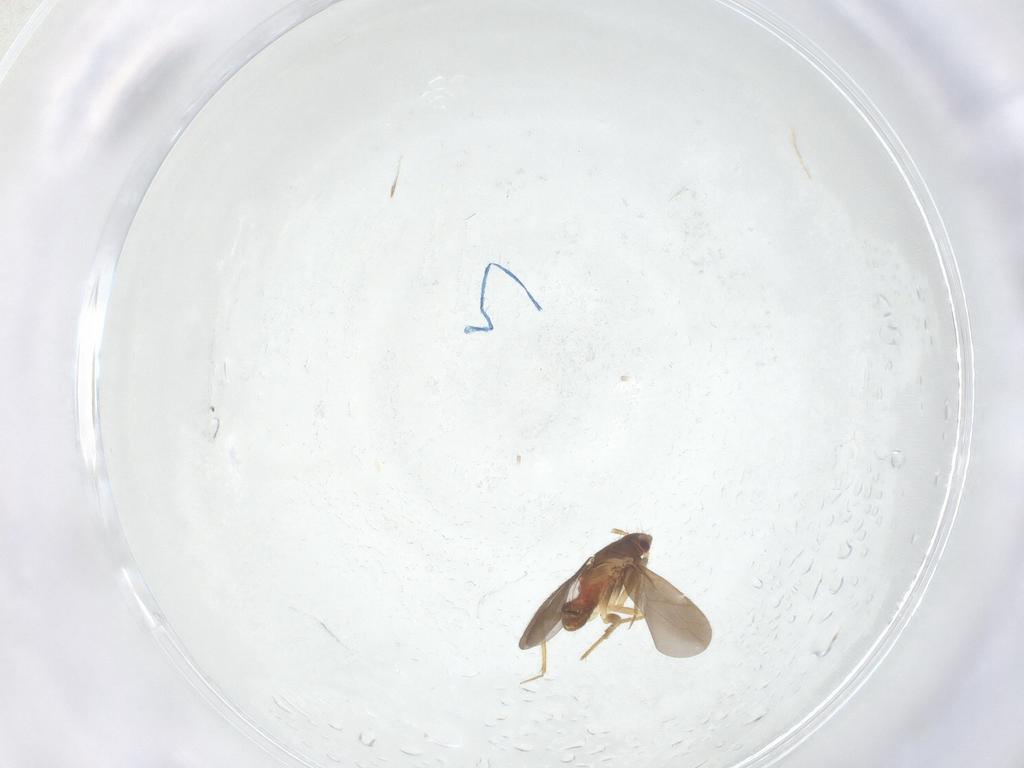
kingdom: Animalia
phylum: Arthropoda
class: Insecta
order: Hemiptera
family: Ceratocombidae
